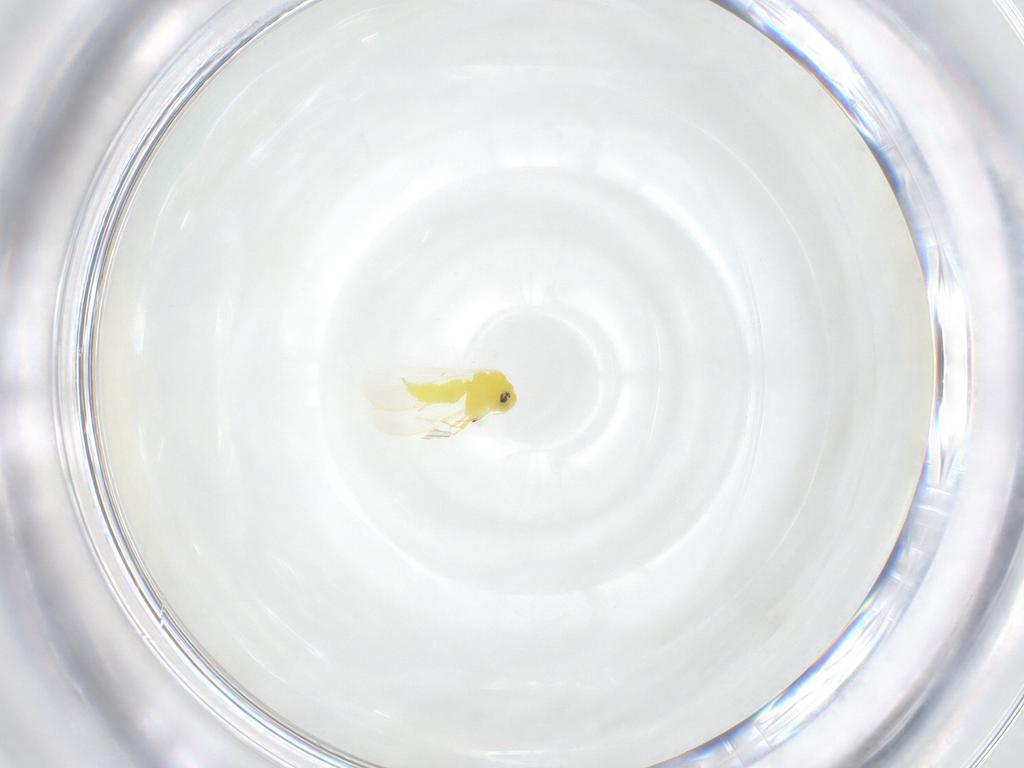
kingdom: Animalia
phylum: Arthropoda
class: Insecta
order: Hemiptera
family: Aleyrodidae
